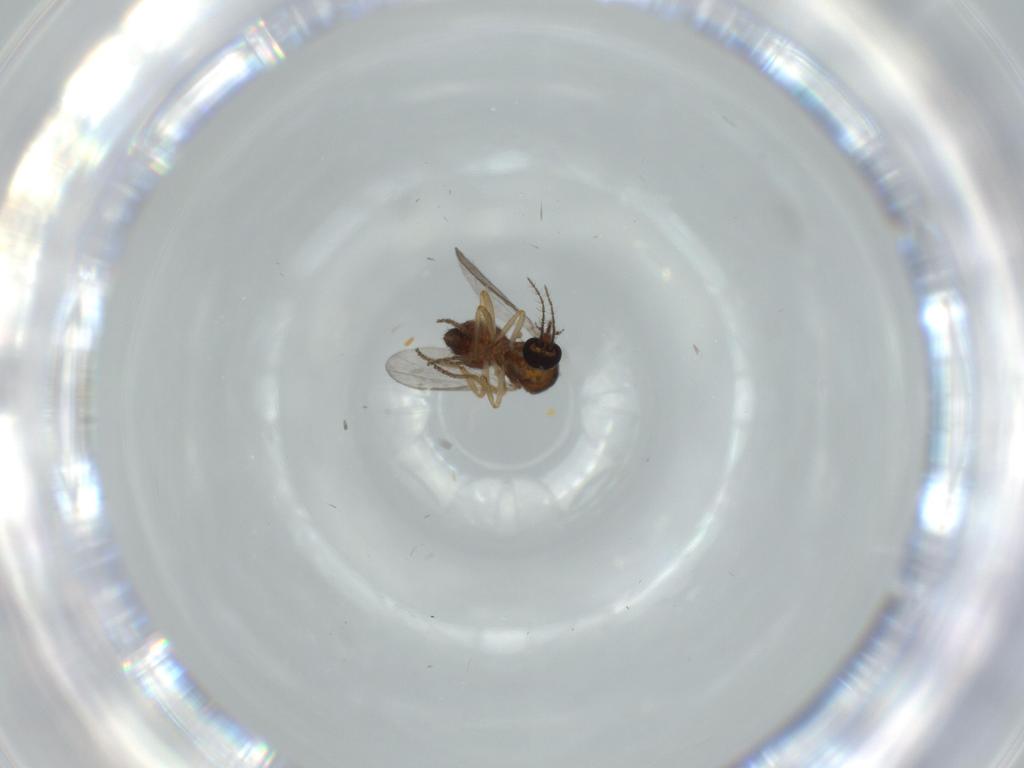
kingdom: Animalia
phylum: Arthropoda
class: Insecta
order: Diptera
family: Ceratopogonidae
